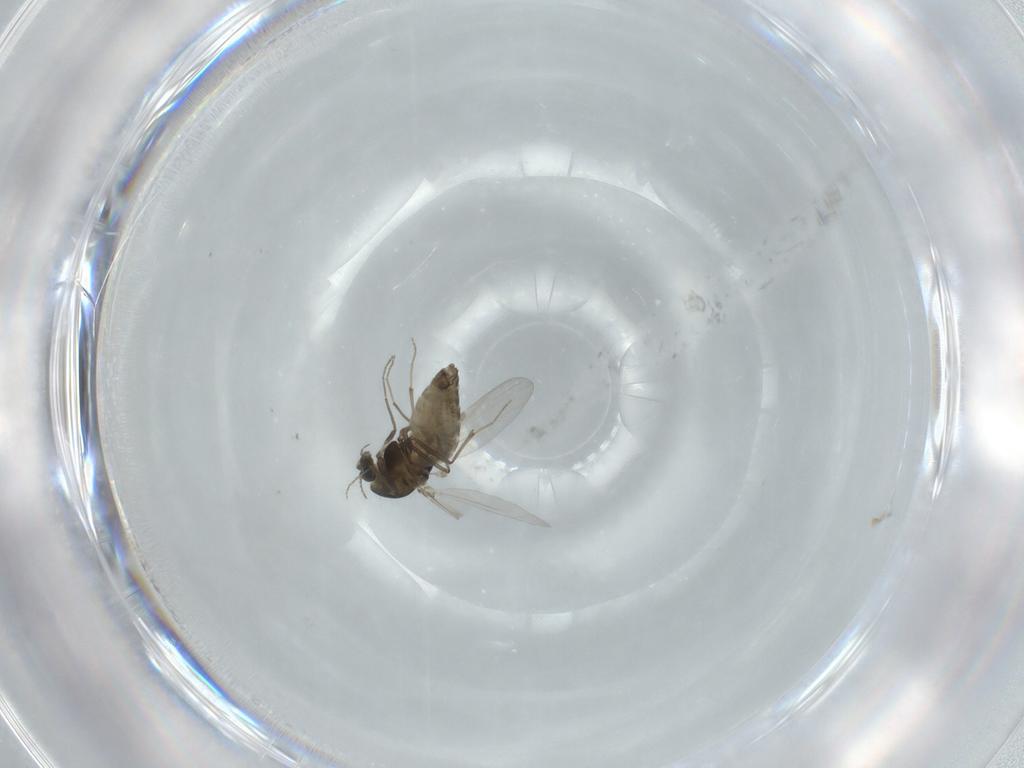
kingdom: Animalia
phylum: Arthropoda
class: Insecta
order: Diptera
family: Chironomidae
